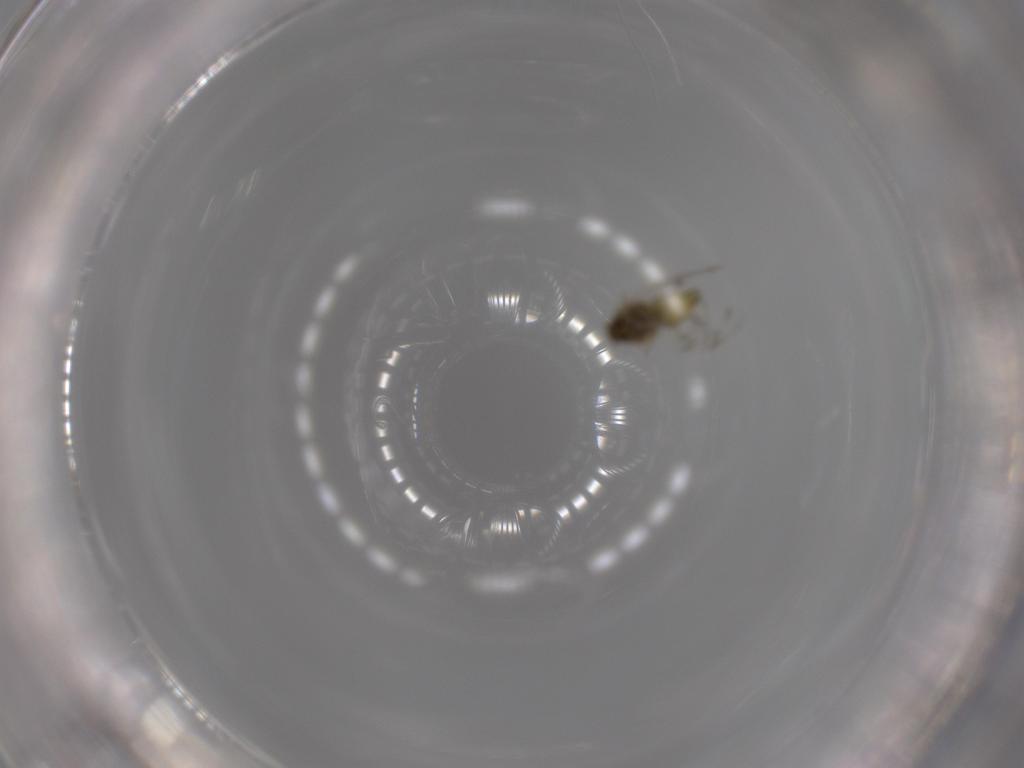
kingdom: Animalia
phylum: Arthropoda
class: Insecta
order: Hemiptera
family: Aleyrodidae
